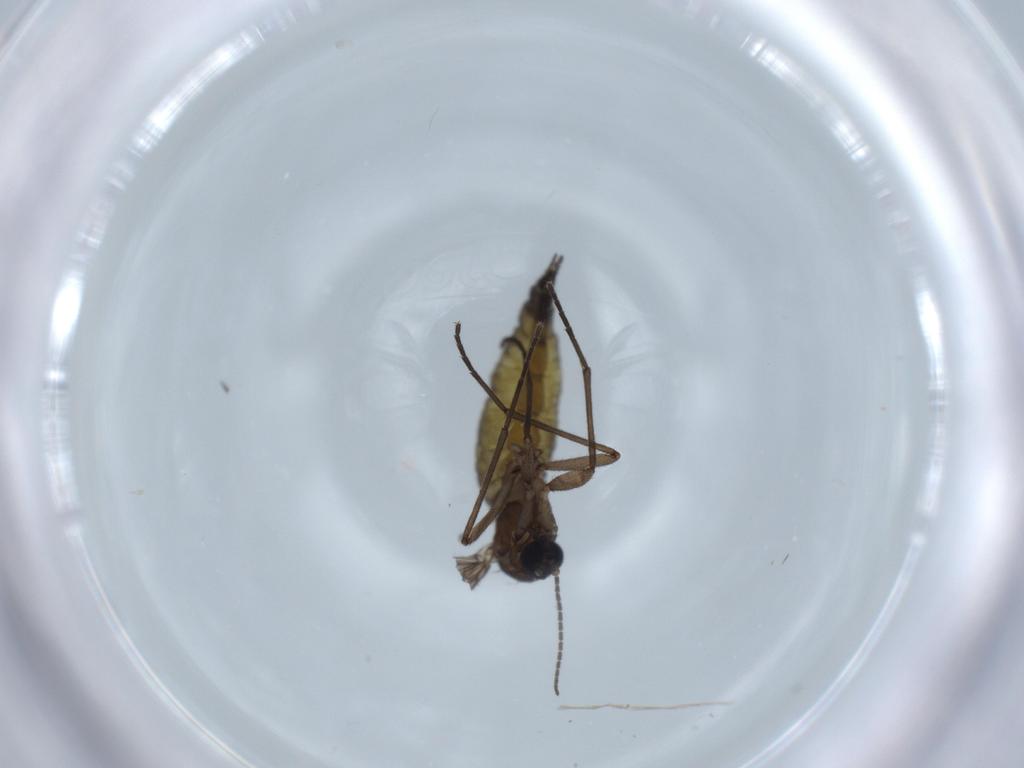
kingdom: Animalia
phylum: Arthropoda
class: Insecta
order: Diptera
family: Sciaridae
